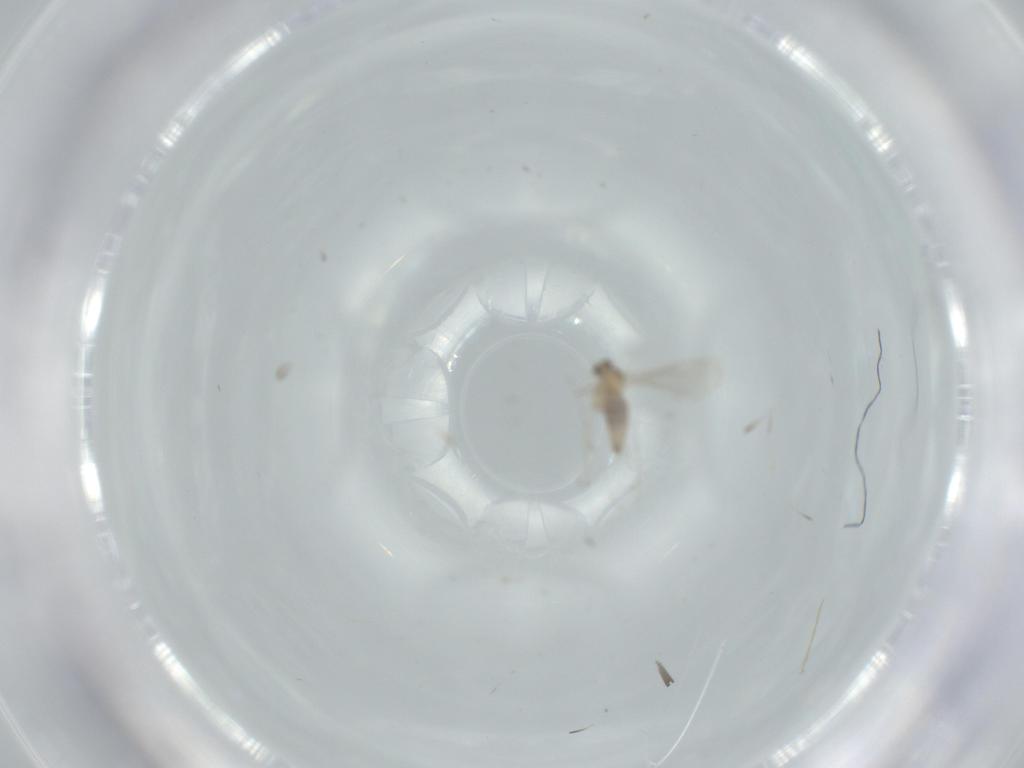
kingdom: Animalia
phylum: Arthropoda
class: Insecta
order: Diptera
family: Cecidomyiidae
